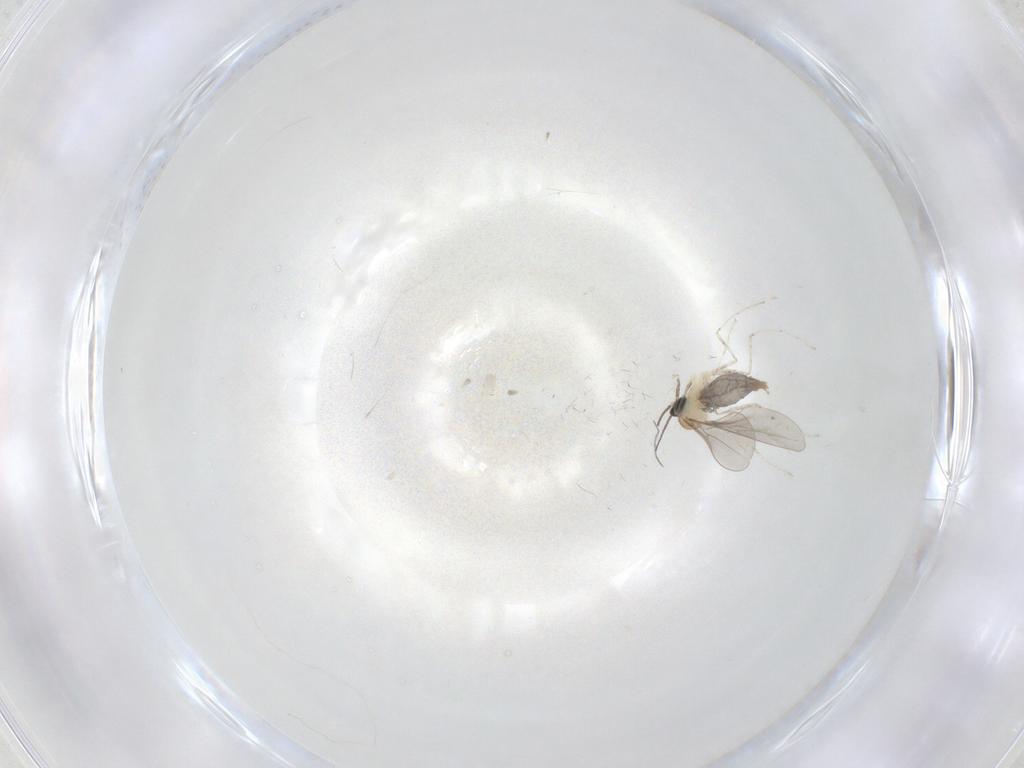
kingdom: Animalia
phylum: Arthropoda
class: Insecta
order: Diptera
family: Cecidomyiidae
